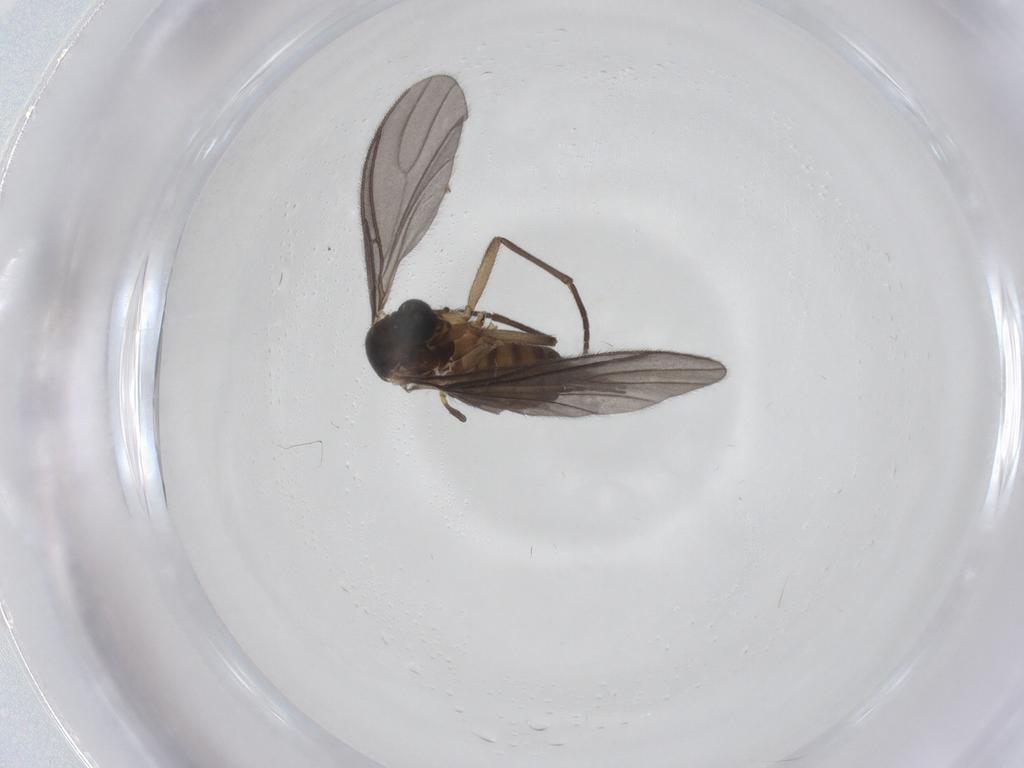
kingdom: Animalia
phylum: Arthropoda
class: Insecta
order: Diptera
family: Sciaridae
